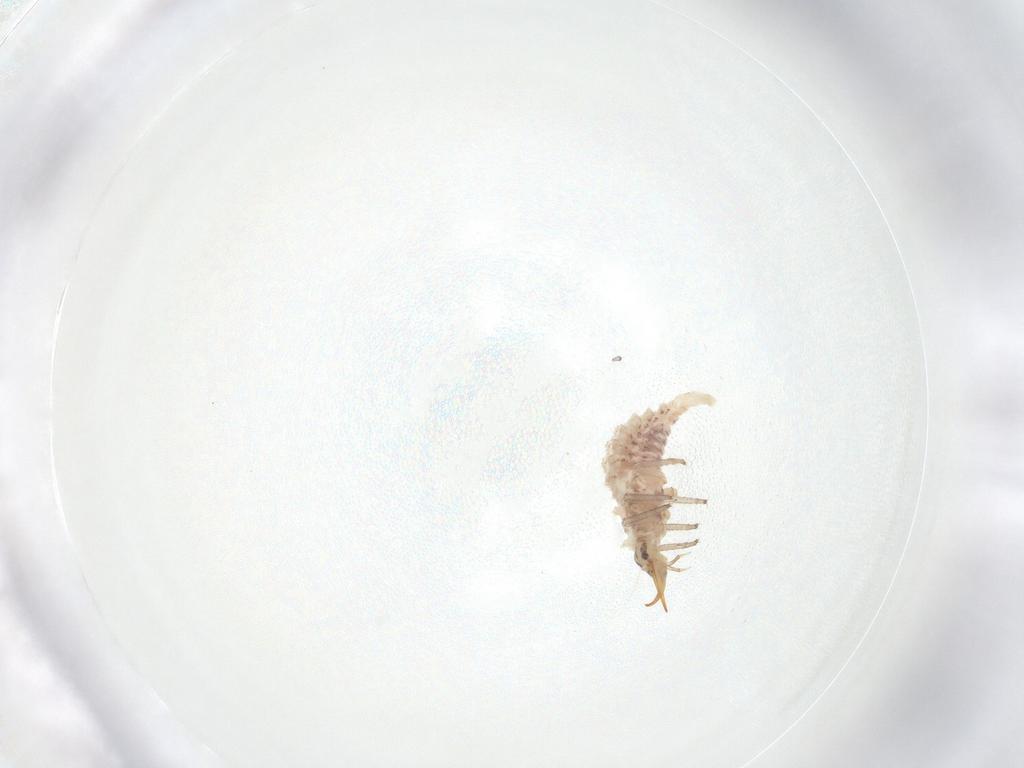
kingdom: Animalia
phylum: Arthropoda
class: Insecta
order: Neuroptera
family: Chrysopidae
